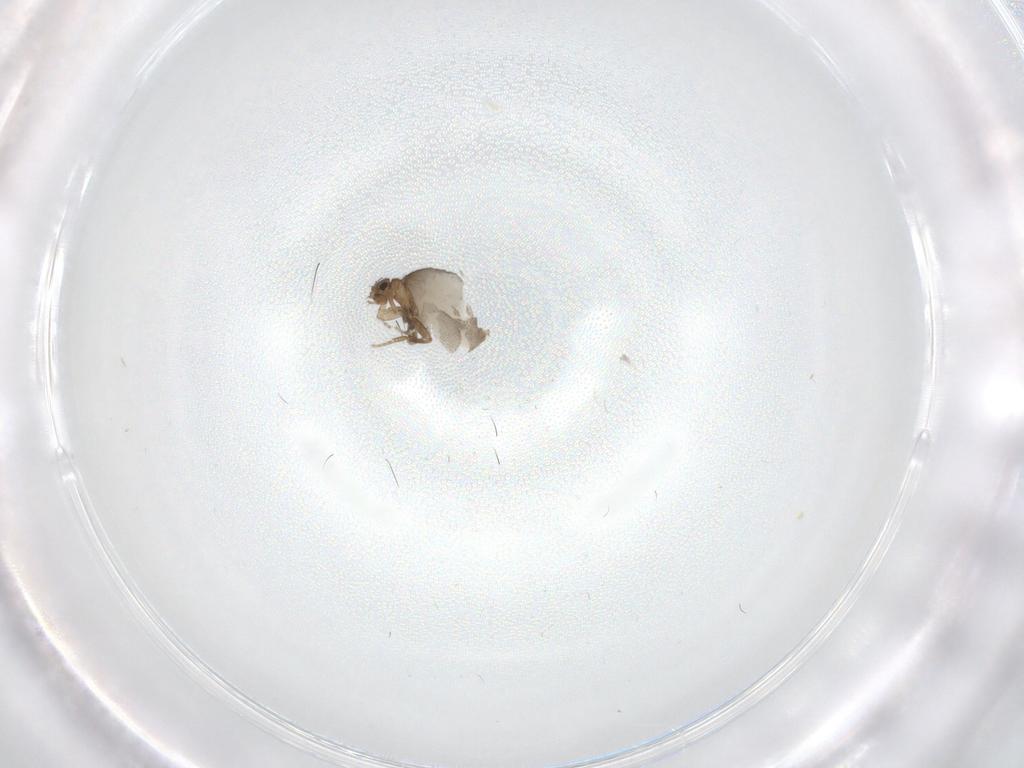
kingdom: Animalia
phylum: Arthropoda
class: Insecta
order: Diptera
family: Phoridae
